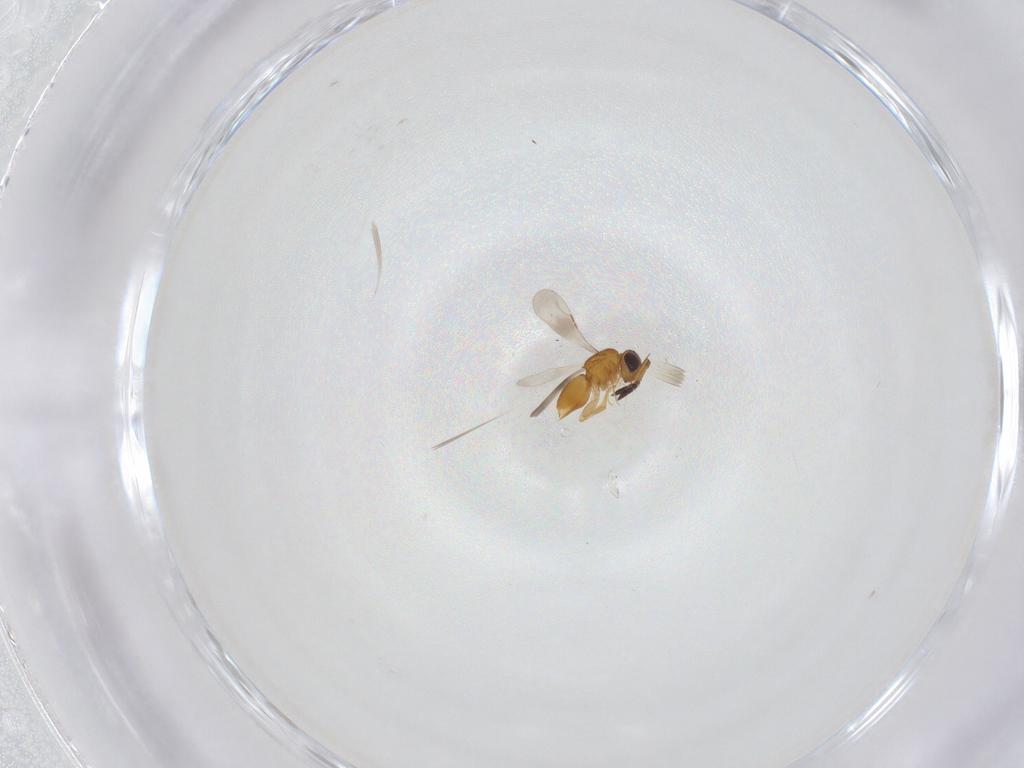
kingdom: Animalia
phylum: Arthropoda
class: Insecta
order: Hymenoptera
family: Ceraphronidae
